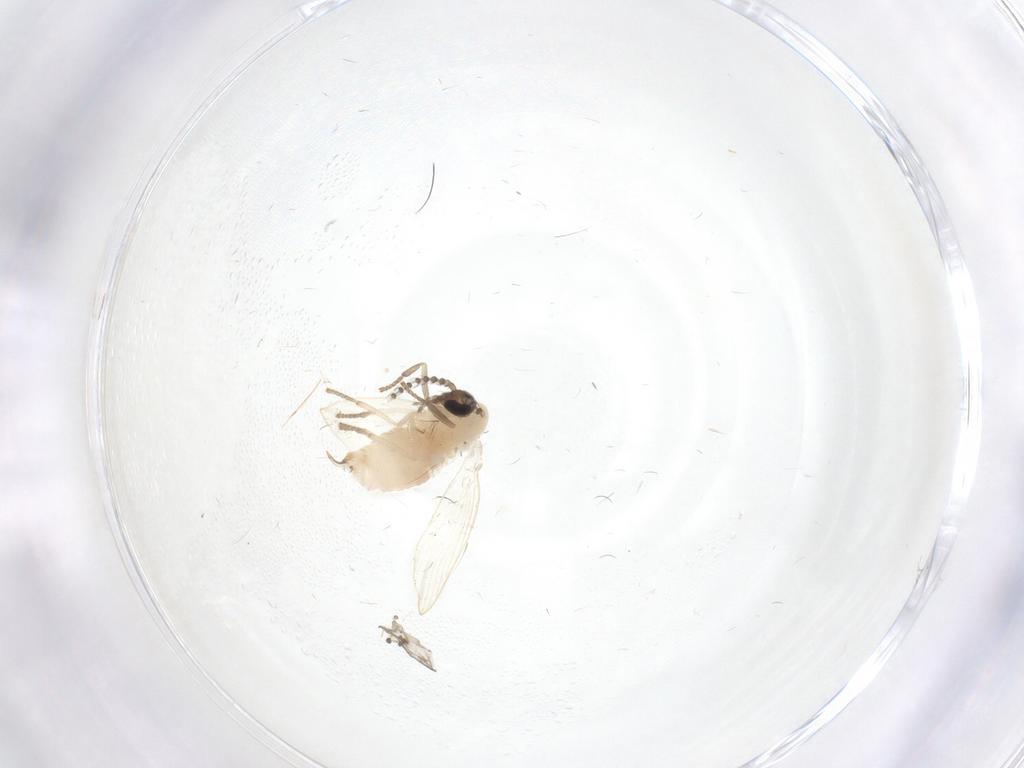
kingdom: Animalia
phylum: Arthropoda
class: Insecta
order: Diptera
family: Psychodidae
